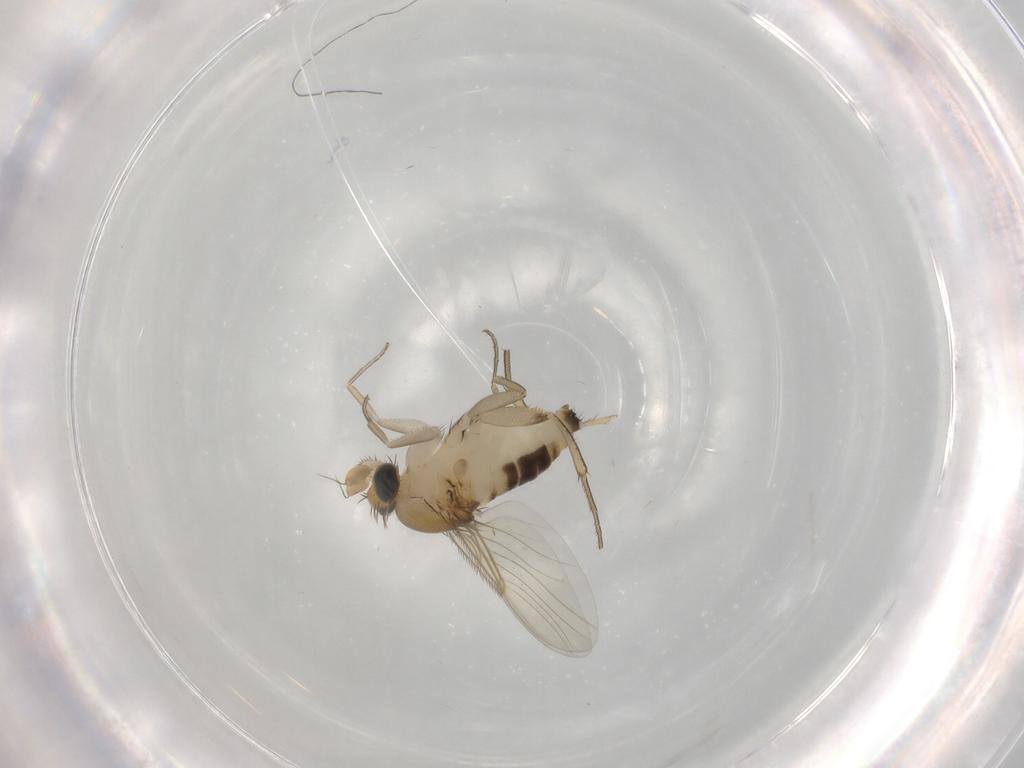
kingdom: Animalia
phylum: Arthropoda
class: Insecta
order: Diptera
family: Phoridae
